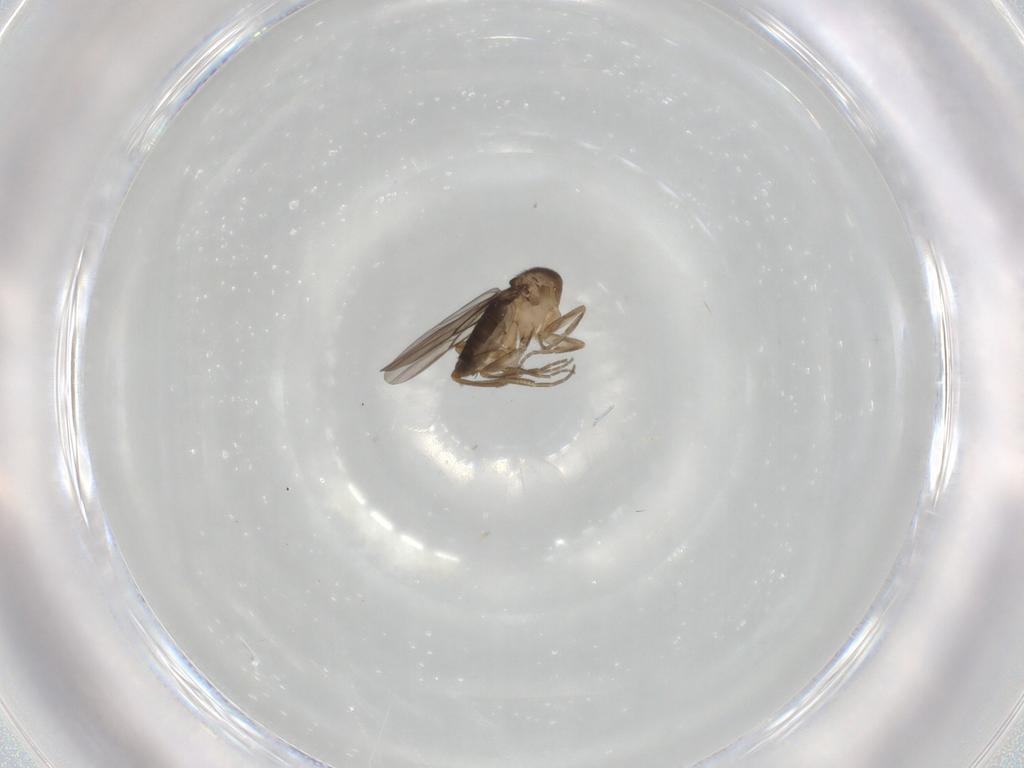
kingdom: Animalia
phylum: Arthropoda
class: Insecta
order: Diptera
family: Phoridae
